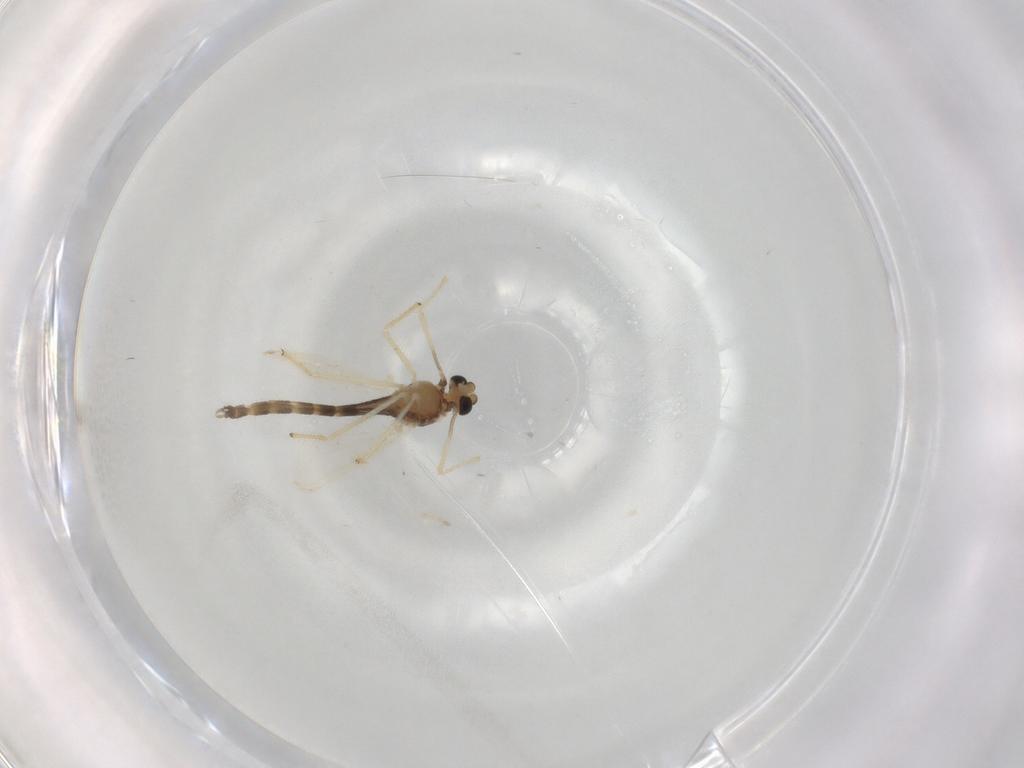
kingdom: Animalia
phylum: Arthropoda
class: Insecta
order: Diptera
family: Chironomidae
